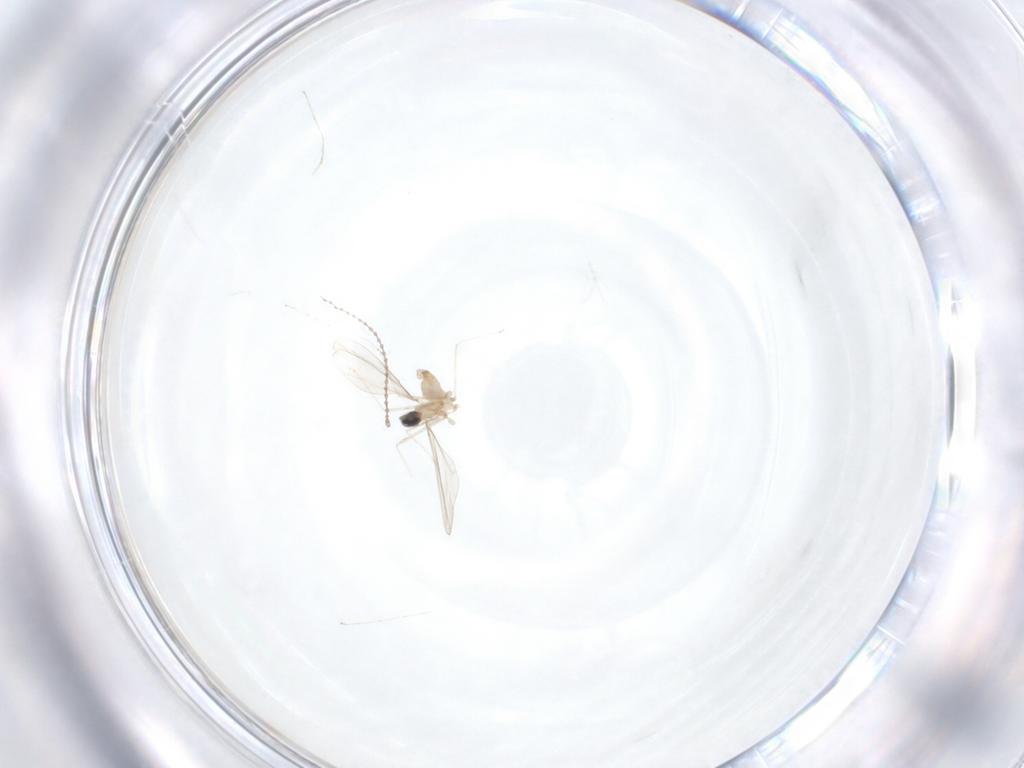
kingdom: Animalia
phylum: Arthropoda
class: Insecta
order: Diptera
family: Cecidomyiidae
